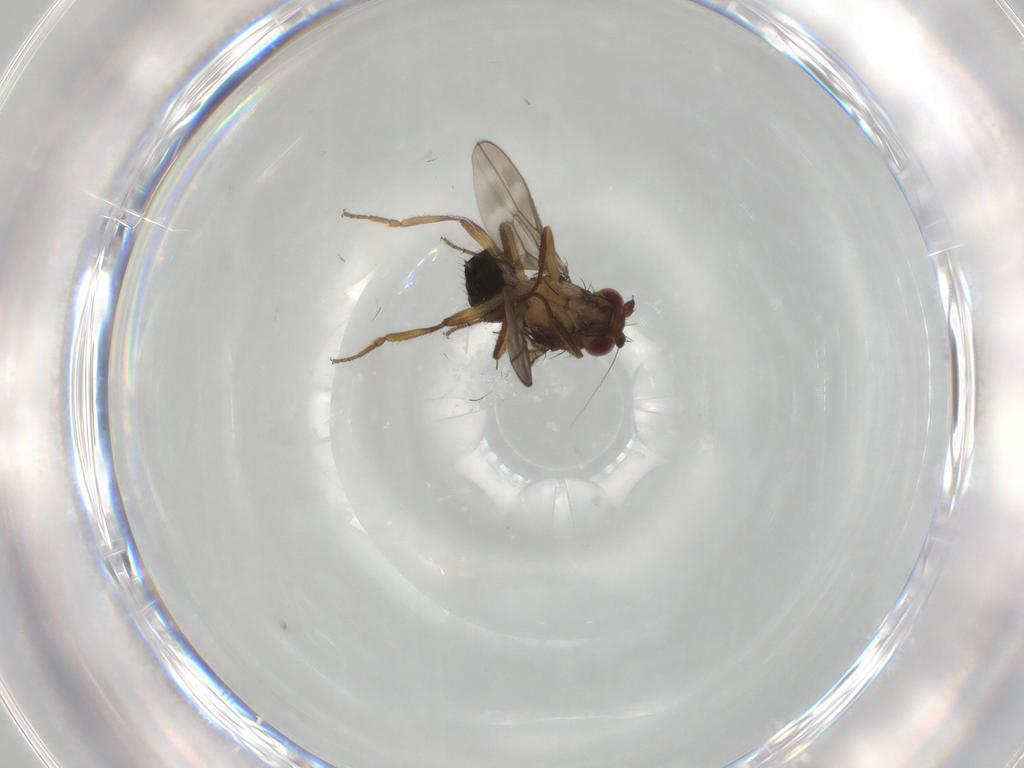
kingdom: Animalia
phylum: Arthropoda
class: Insecta
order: Diptera
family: Sphaeroceridae
